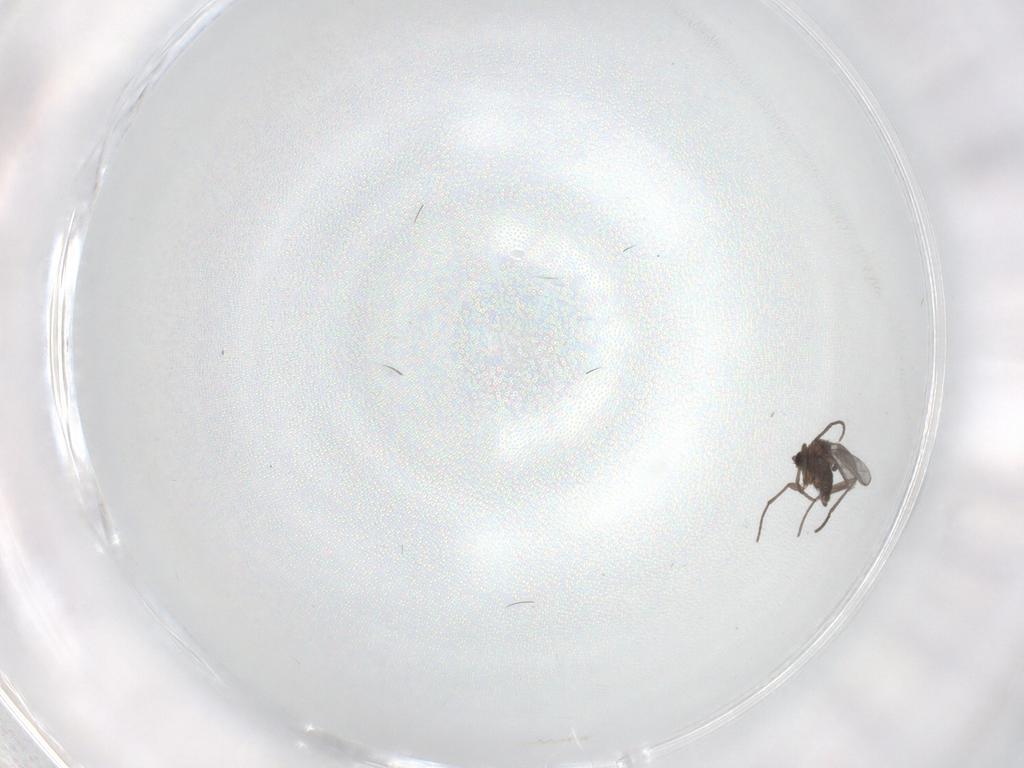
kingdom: Animalia
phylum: Arthropoda
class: Insecta
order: Diptera
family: Sciaridae
